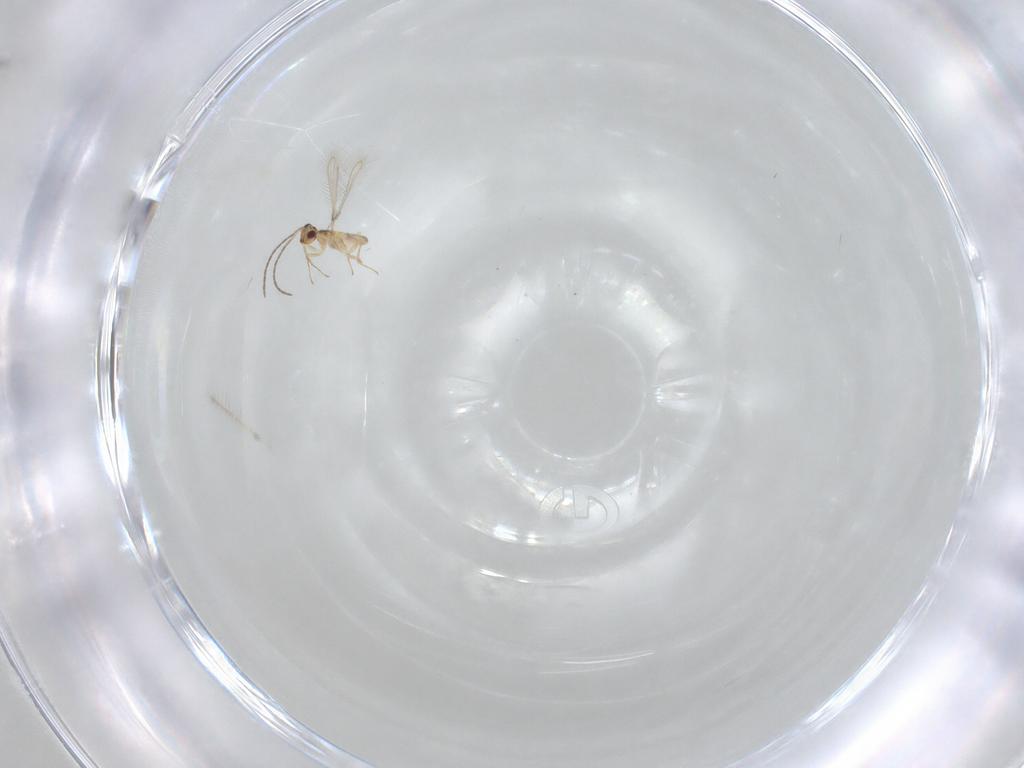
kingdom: Animalia
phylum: Arthropoda
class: Insecta
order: Hymenoptera
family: Mymaridae
